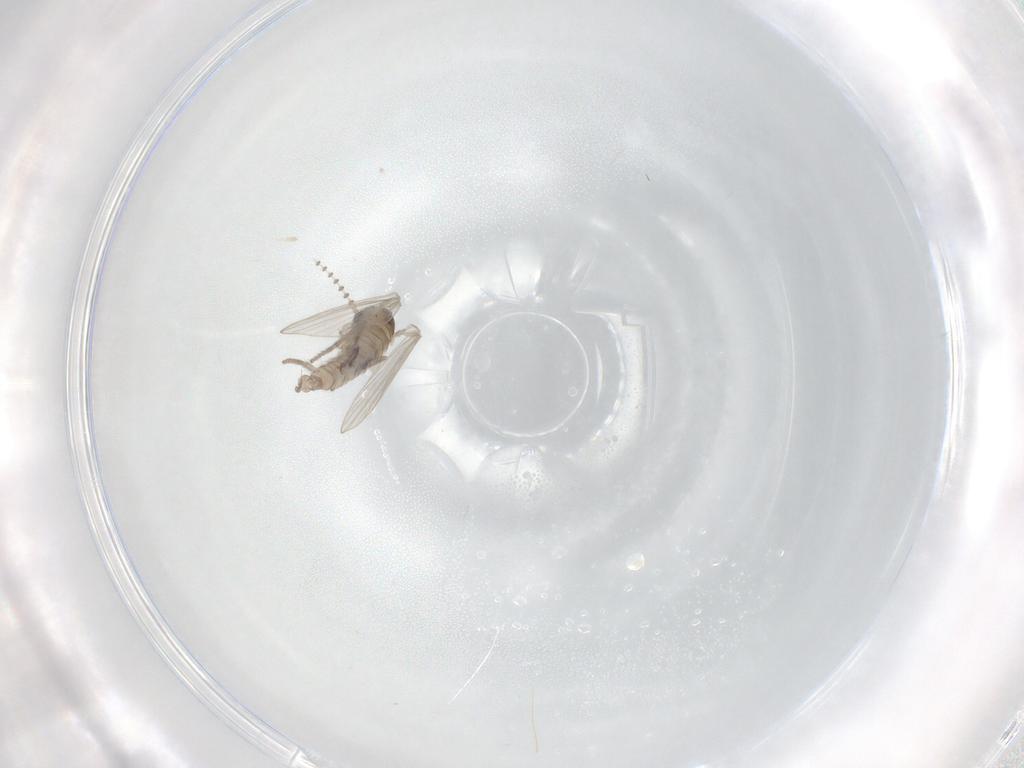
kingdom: Animalia
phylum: Arthropoda
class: Insecta
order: Diptera
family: Psychodidae
